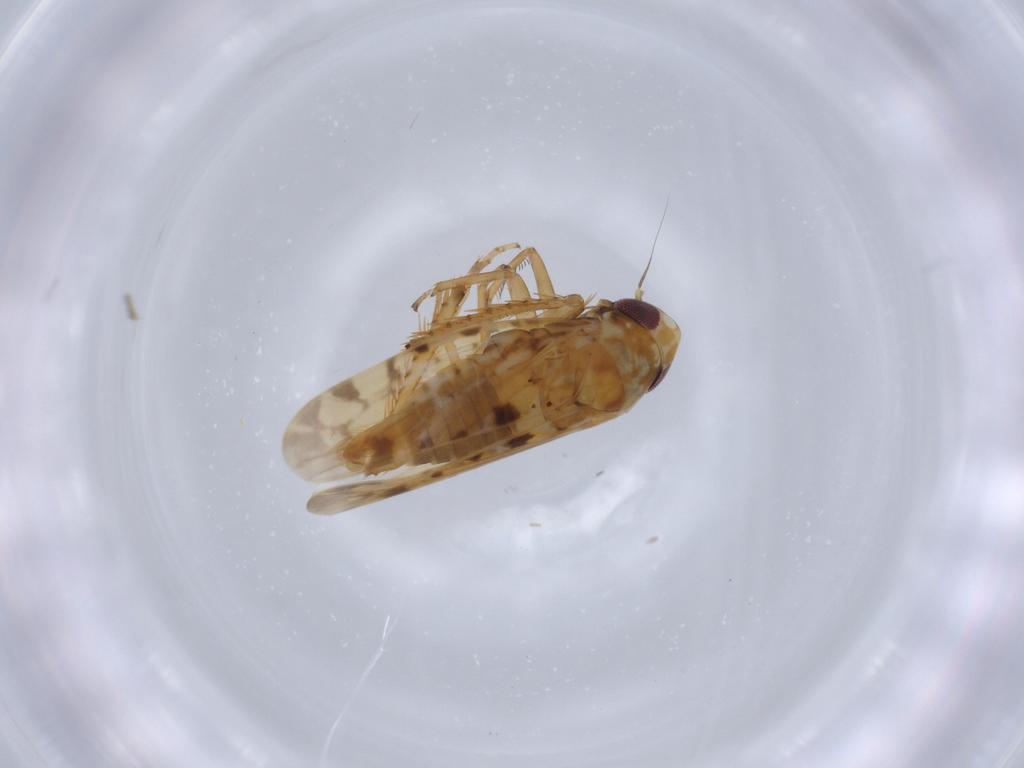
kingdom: Animalia
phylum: Arthropoda
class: Insecta
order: Hemiptera
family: Cicadellidae
